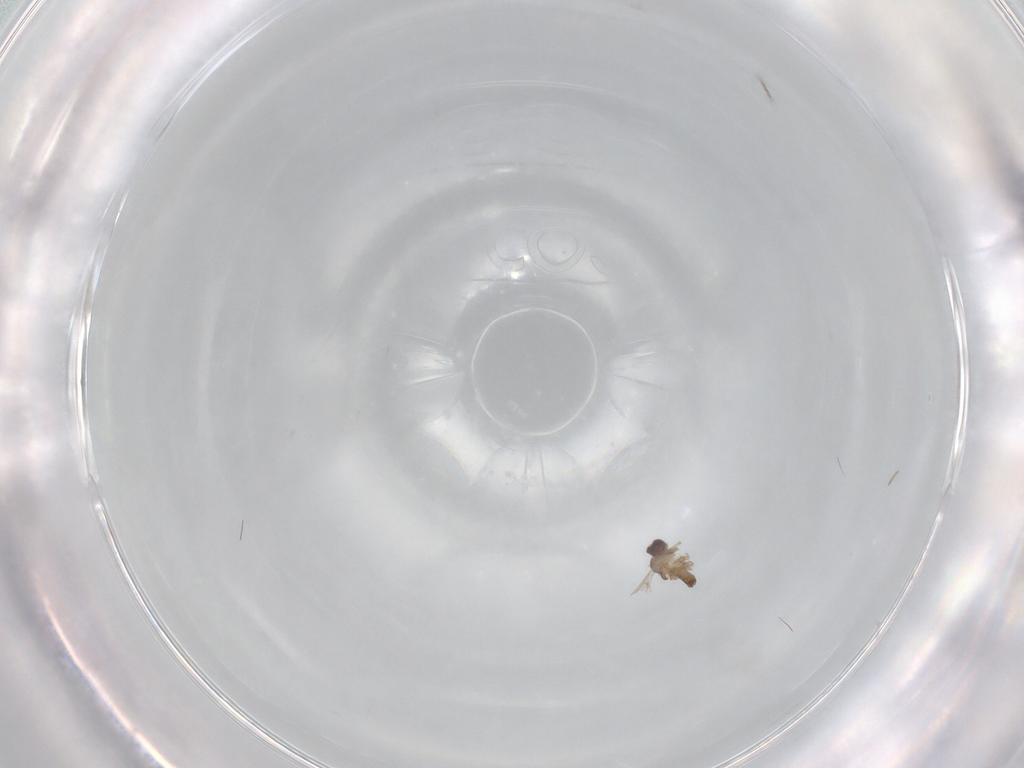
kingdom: Animalia
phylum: Arthropoda
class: Insecta
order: Diptera
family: Cecidomyiidae
